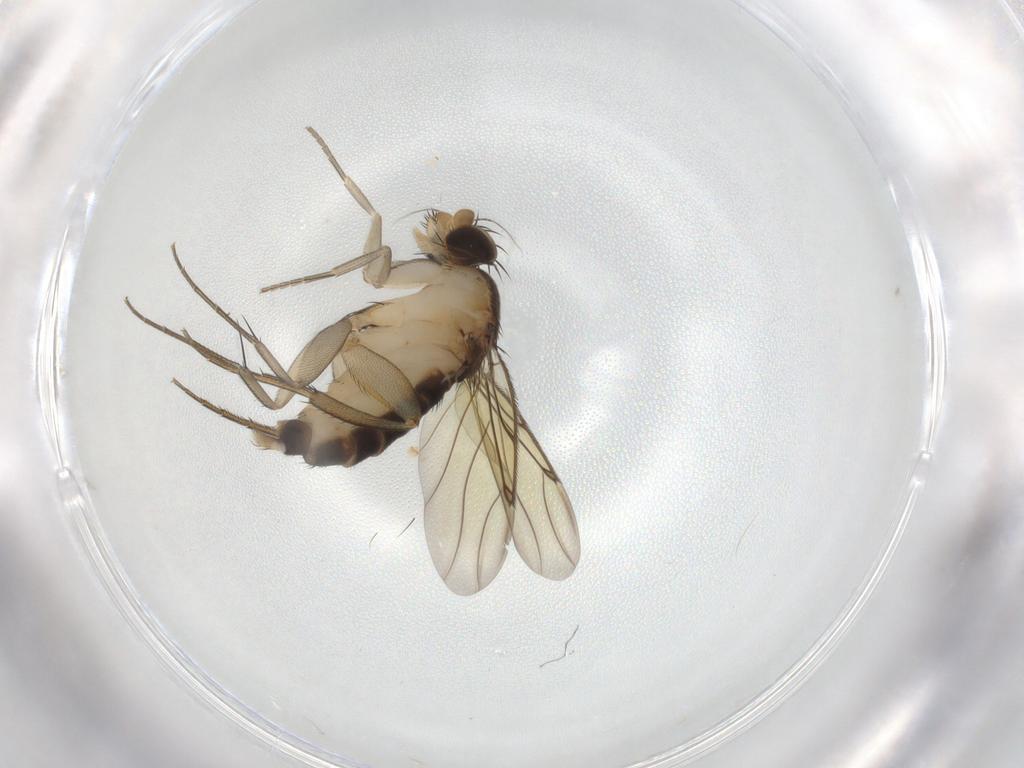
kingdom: Animalia
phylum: Arthropoda
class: Insecta
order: Diptera
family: Phoridae
